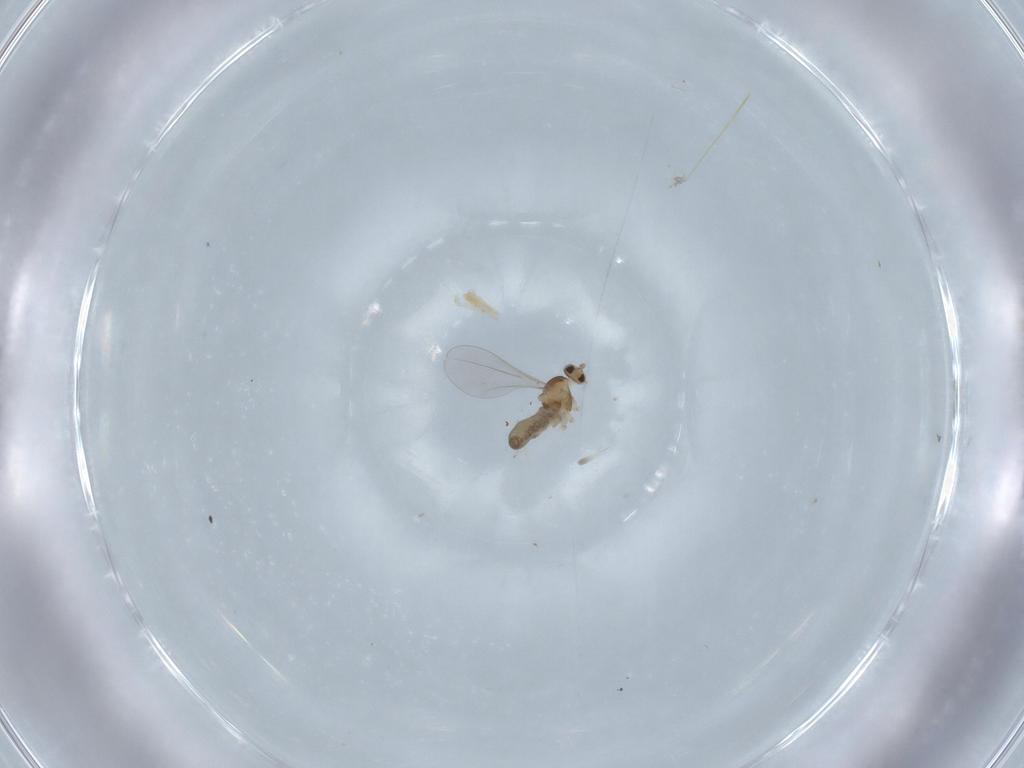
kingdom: Animalia
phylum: Arthropoda
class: Insecta
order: Diptera
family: Cecidomyiidae
